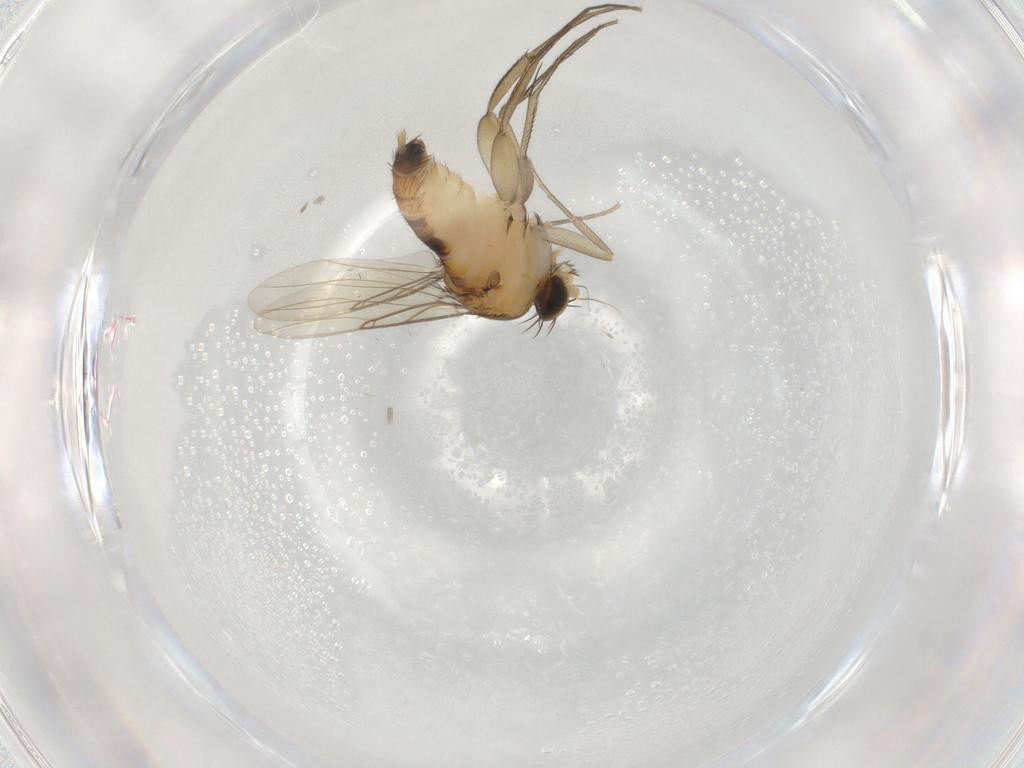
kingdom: Animalia
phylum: Arthropoda
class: Insecta
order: Diptera
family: Phoridae
